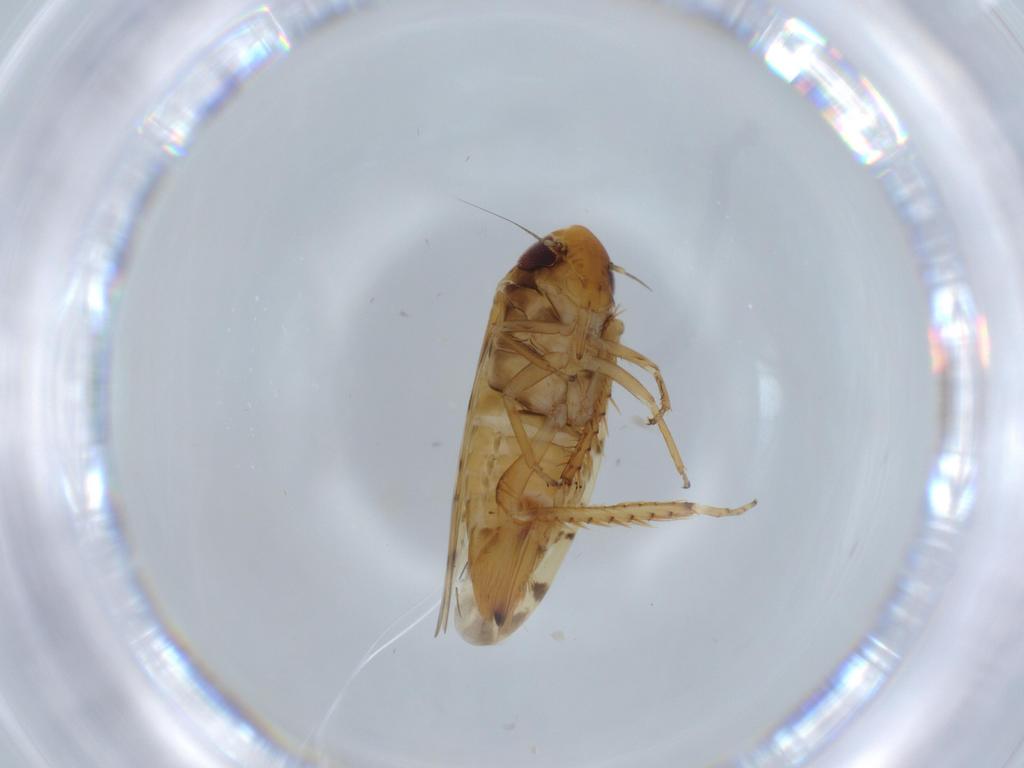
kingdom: Animalia
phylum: Arthropoda
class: Insecta
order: Hemiptera
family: Cicadellidae
